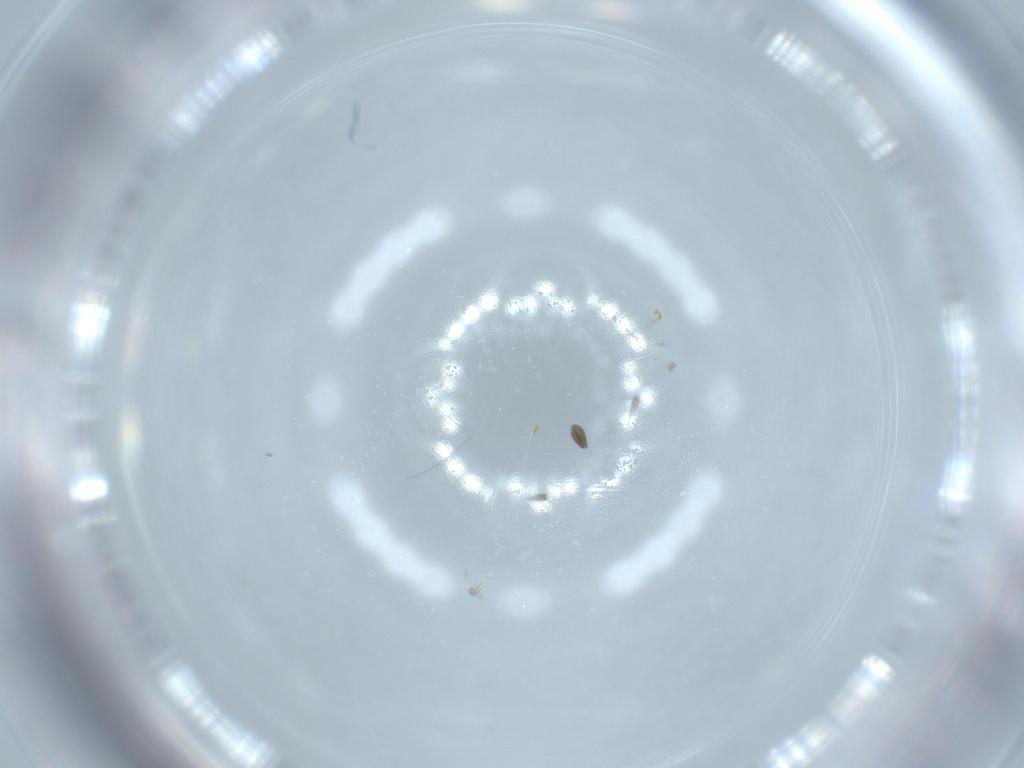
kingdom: Animalia
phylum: Arthropoda
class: Insecta
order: Diptera
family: Sciaridae
